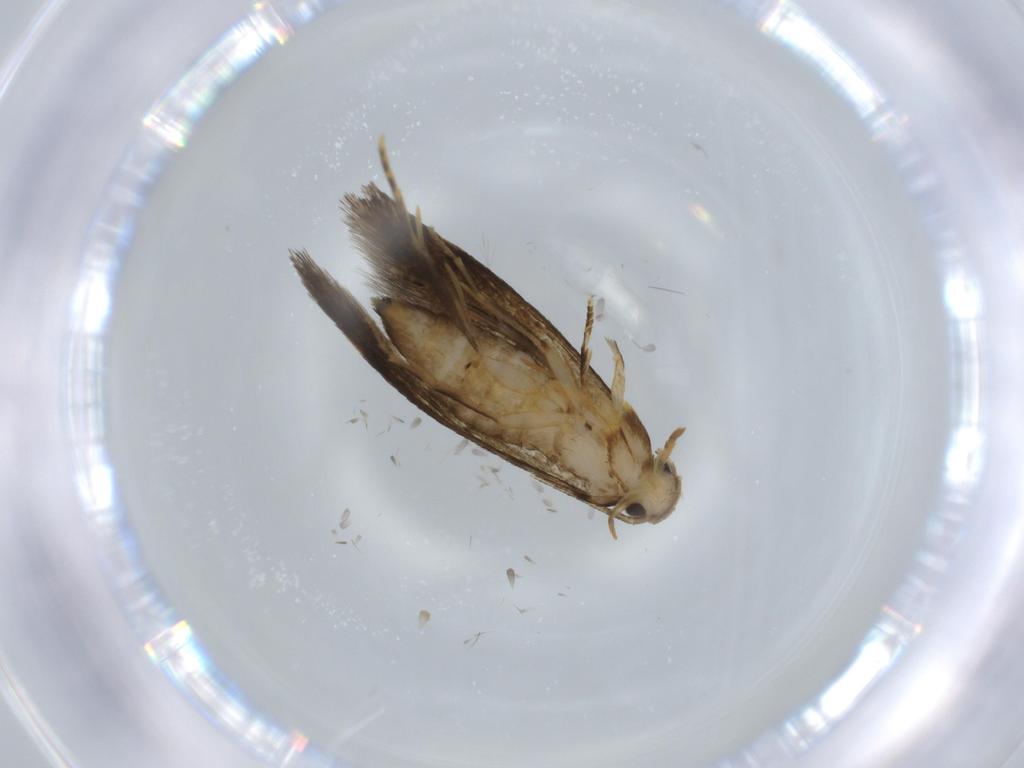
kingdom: Animalia
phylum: Arthropoda
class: Insecta
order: Lepidoptera
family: Tineidae
